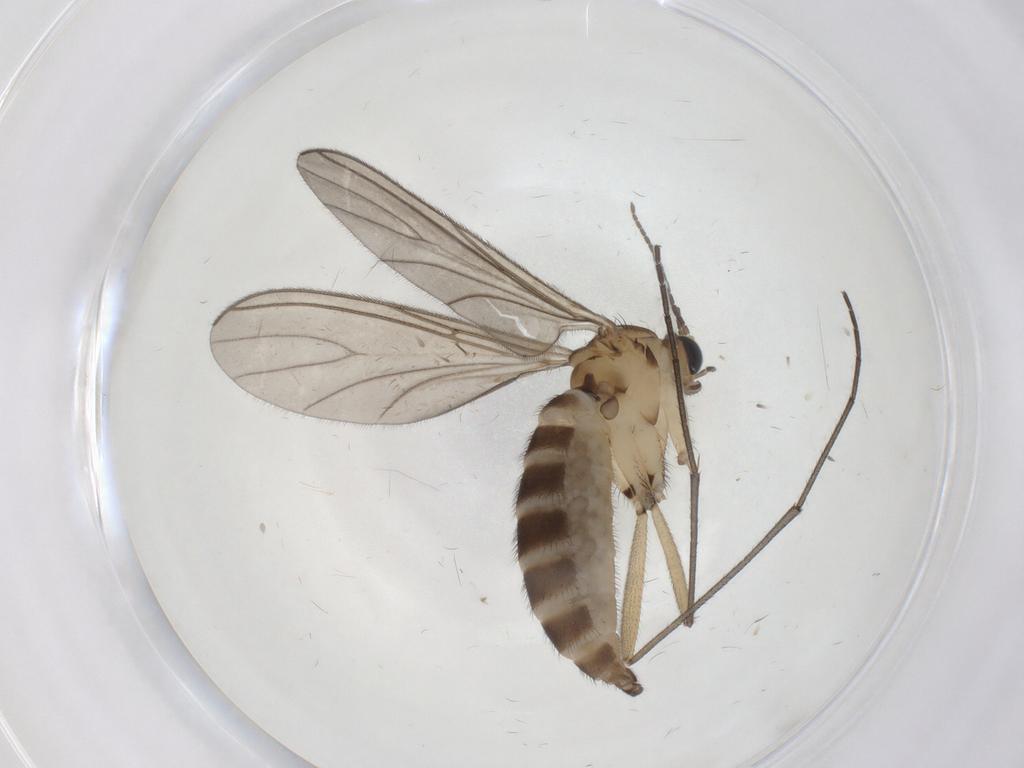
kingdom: Animalia
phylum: Arthropoda
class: Insecta
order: Diptera
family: Sciaridae
